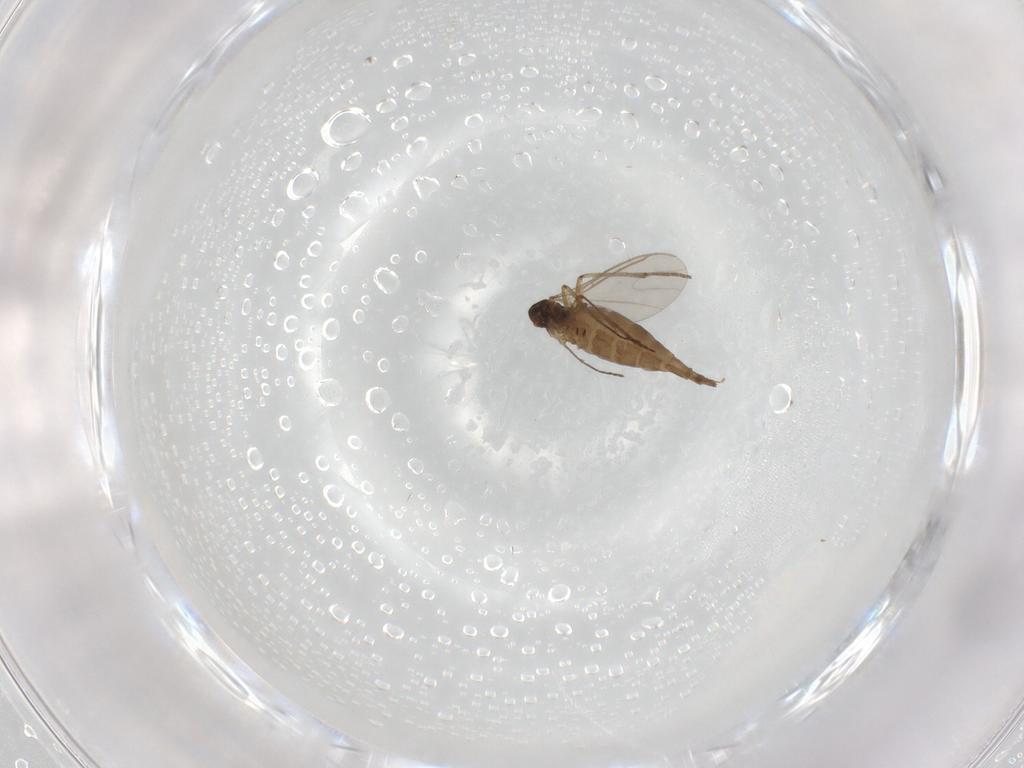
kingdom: Animalia
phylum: Arthropoda
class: Insecta
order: Diptera
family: Sciaridae
